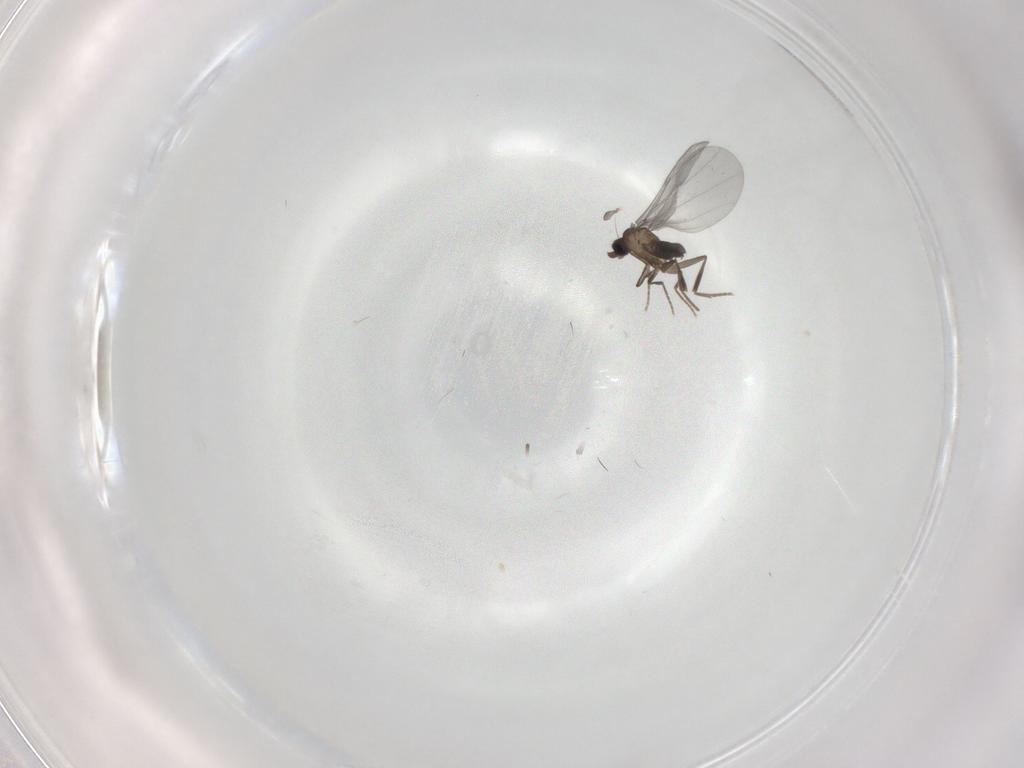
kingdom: Animalia
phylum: Arthropoda
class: Insecta
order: Diptera
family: Phoridae
